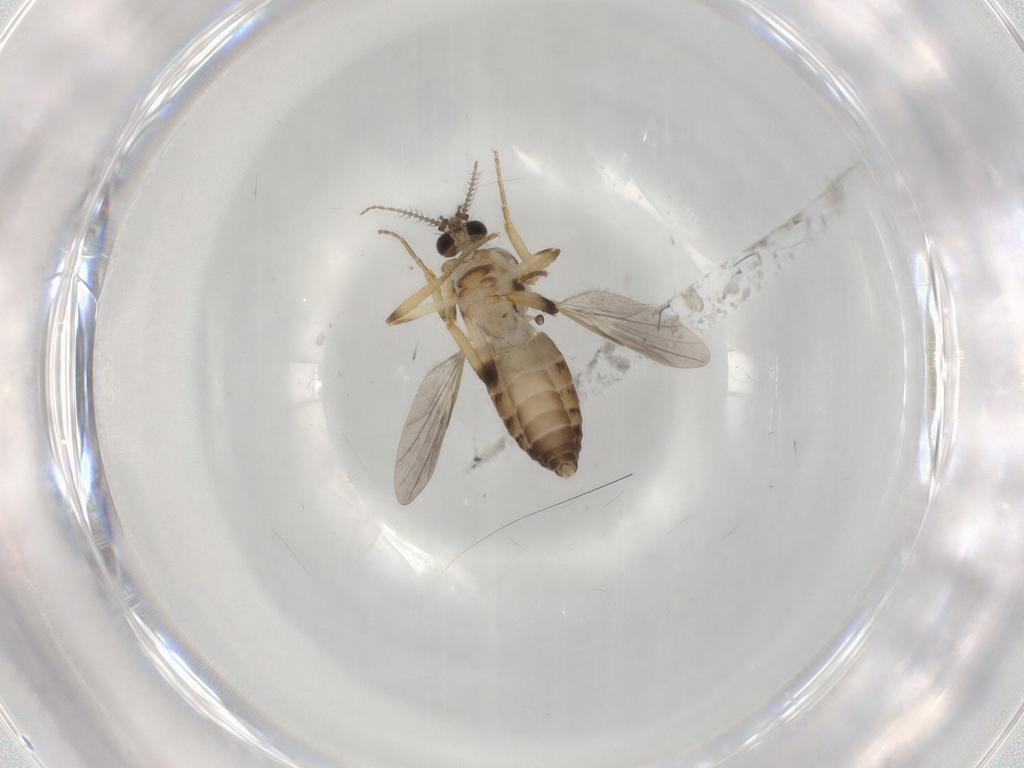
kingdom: Animalia
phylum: Arthropoda
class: Insecta
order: Diptera
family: Ceratopogonidae
